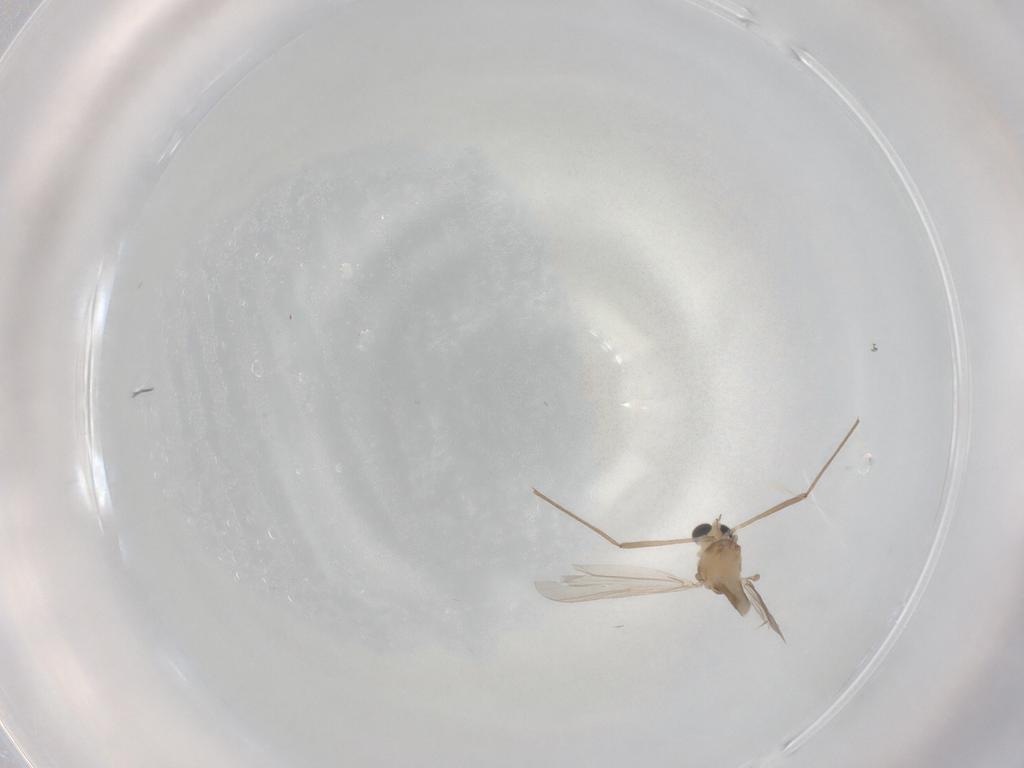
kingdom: Animalia
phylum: Arthropoda
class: Insecta
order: Diptera
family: Chironomidae
